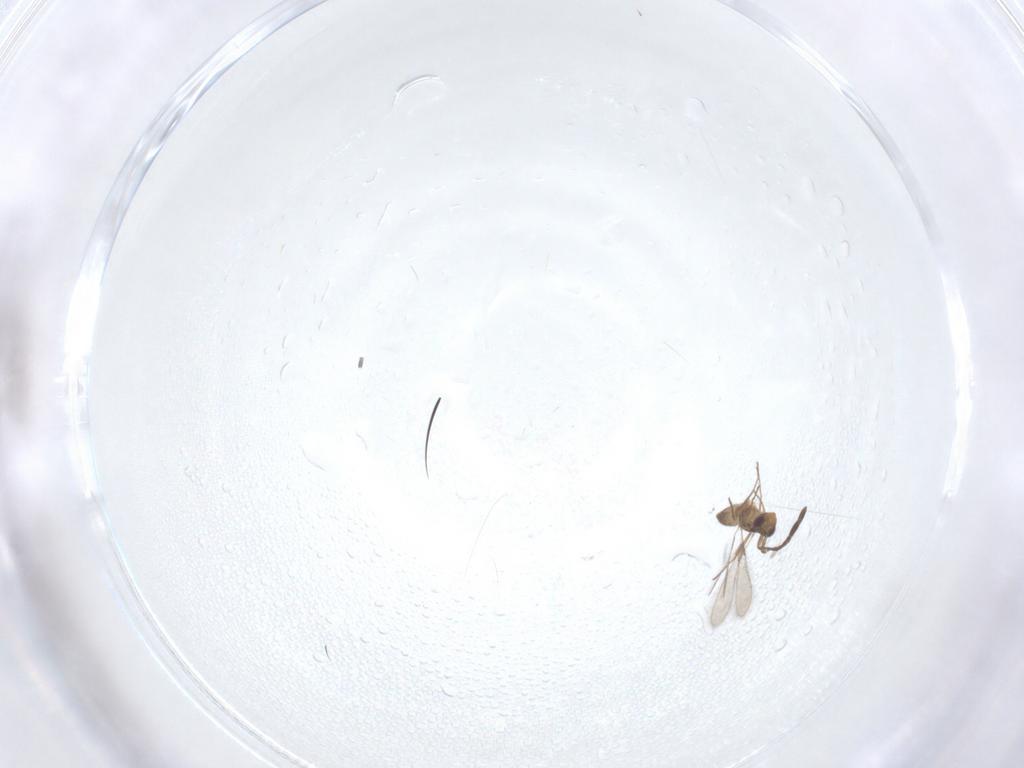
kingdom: Animalia
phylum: Arthropoda
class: Insecta
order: Hymenoptera
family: Mymaridae
